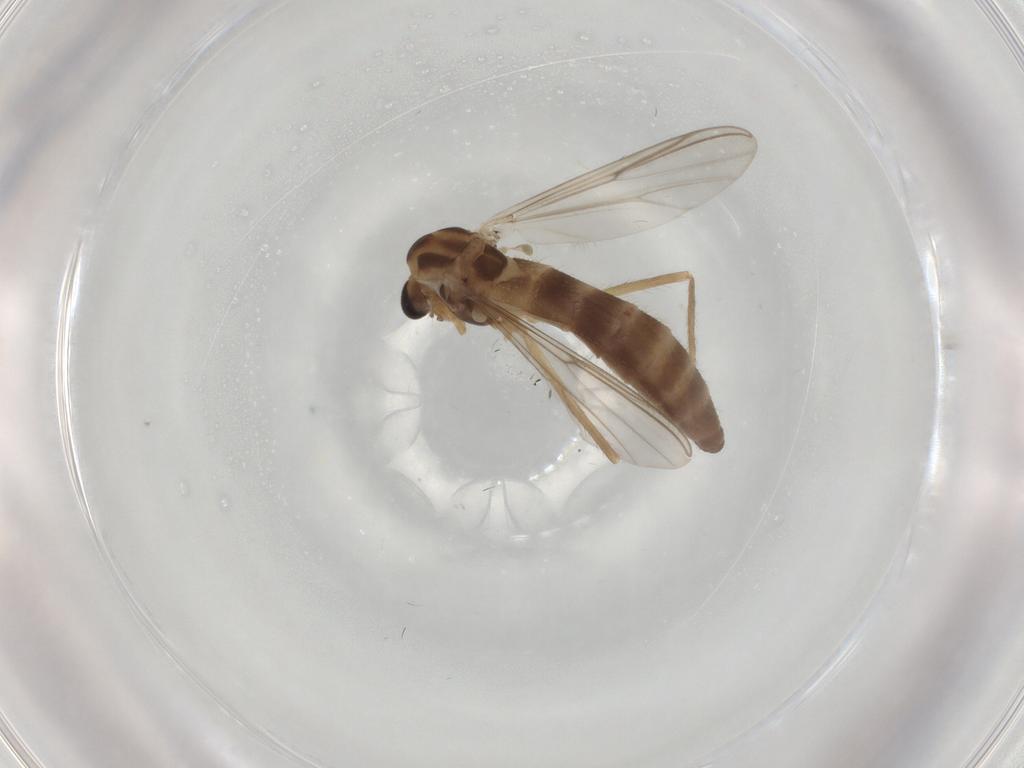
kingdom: Animalia
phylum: Arthropoda
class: Insecta
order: Diptera
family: Chironomidae
